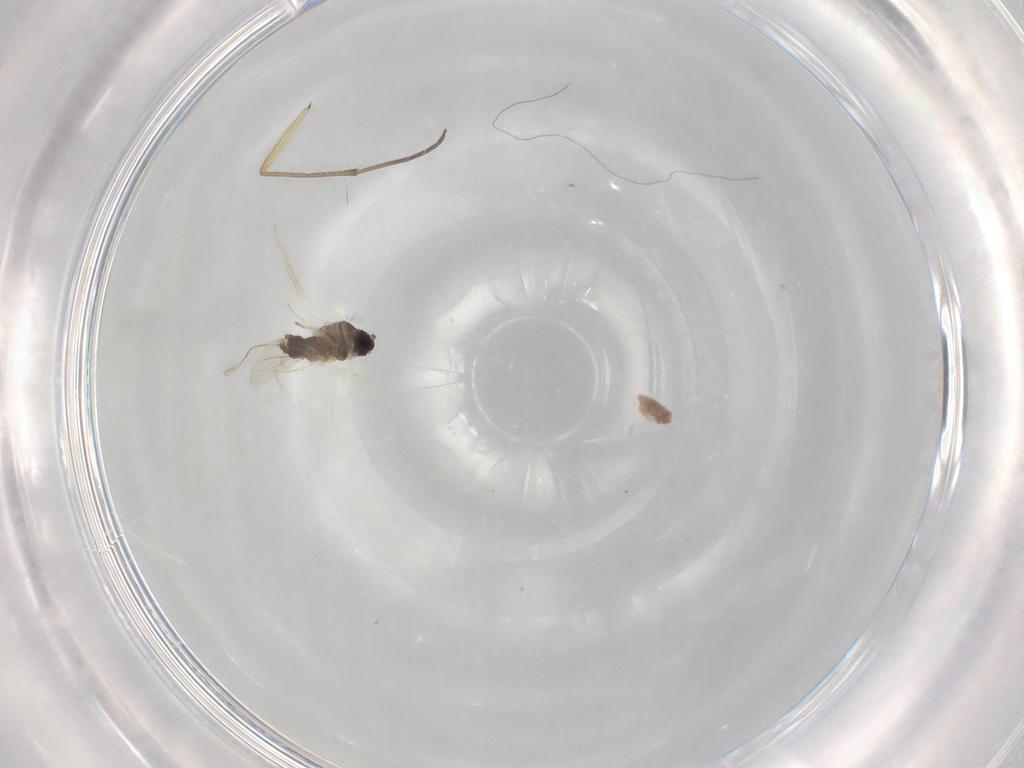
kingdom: Animalia
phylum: Arthropoda
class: Insecta
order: Diptera
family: Cecidomyiidae
